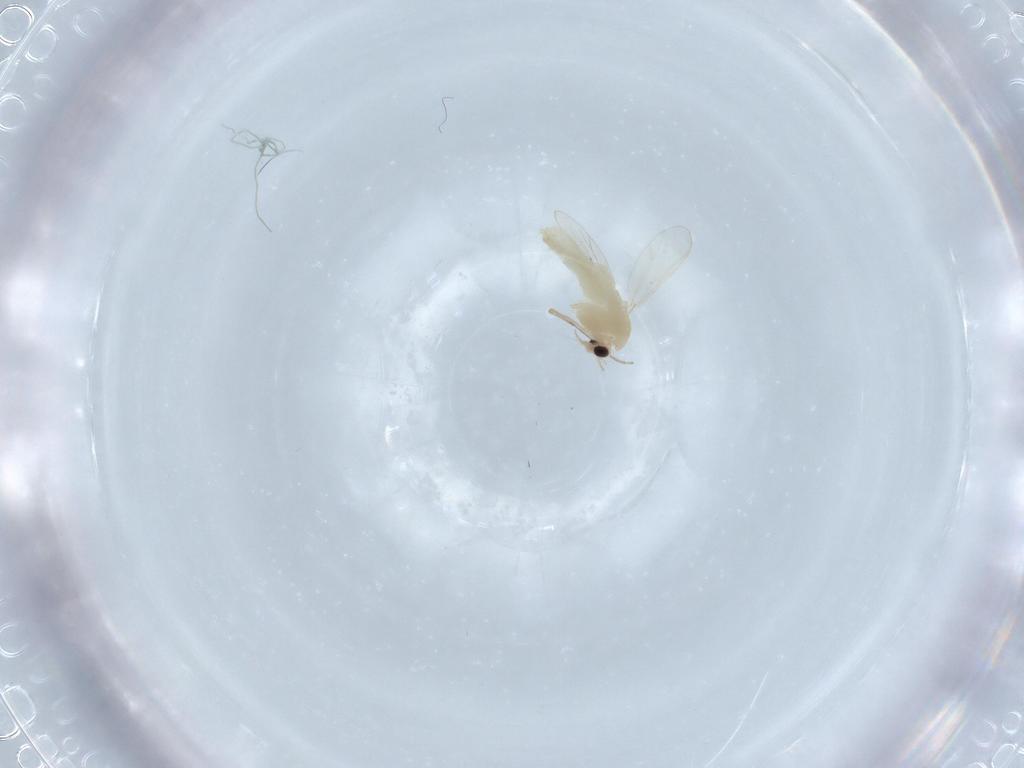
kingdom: Animalia
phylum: Arthropoda
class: Insecta
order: Diptera
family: Chironomidae
